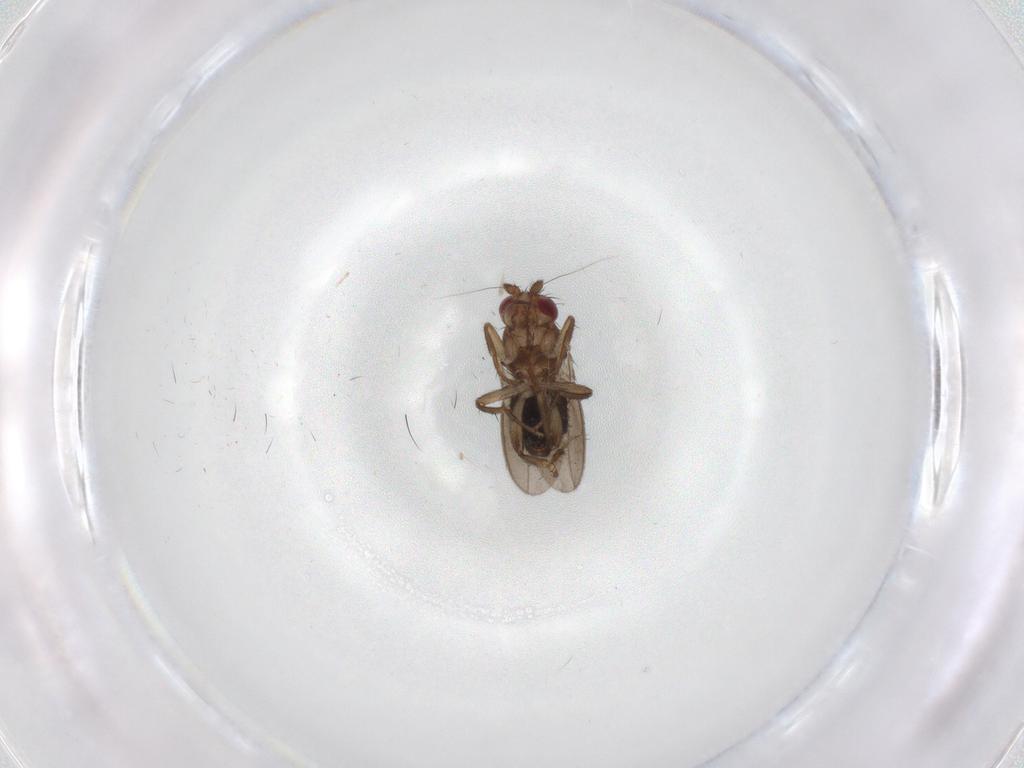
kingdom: Animalia
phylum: Arthropoda
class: Insecta
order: Diptera
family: Sphaeroceridae
